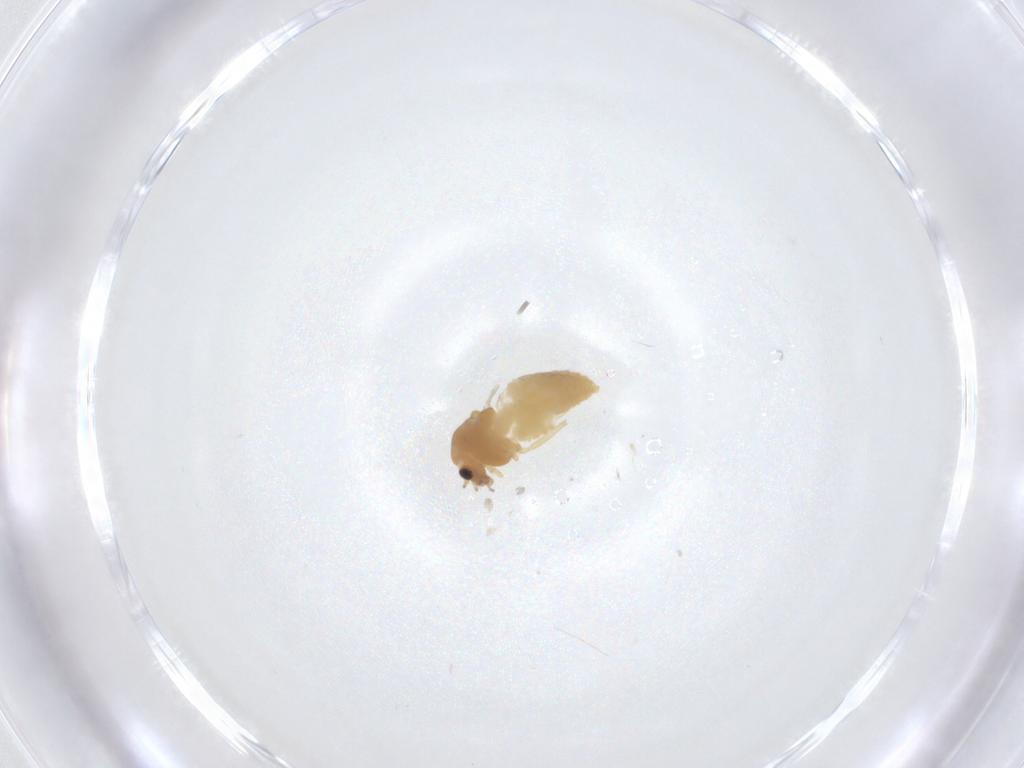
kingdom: Animalia
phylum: Arthropoda
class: Insecta
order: Diptera
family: Chironomidae
